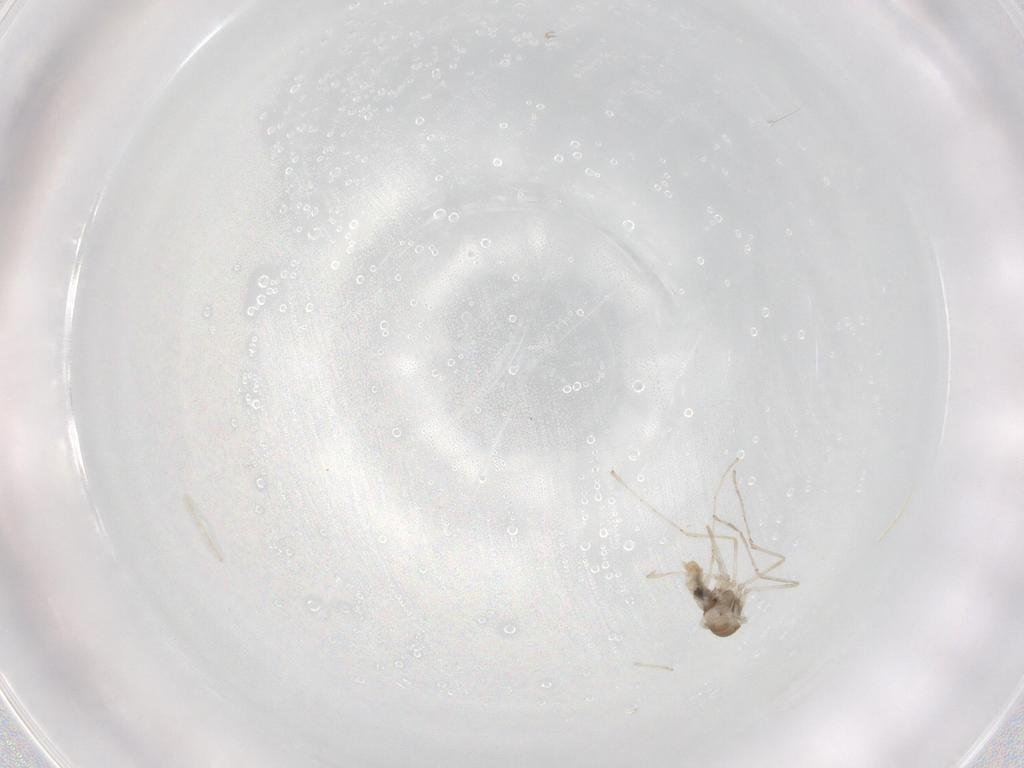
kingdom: Animalia
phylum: Arthropoda
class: Insecta
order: Diptera
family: Cecidomyiidae
